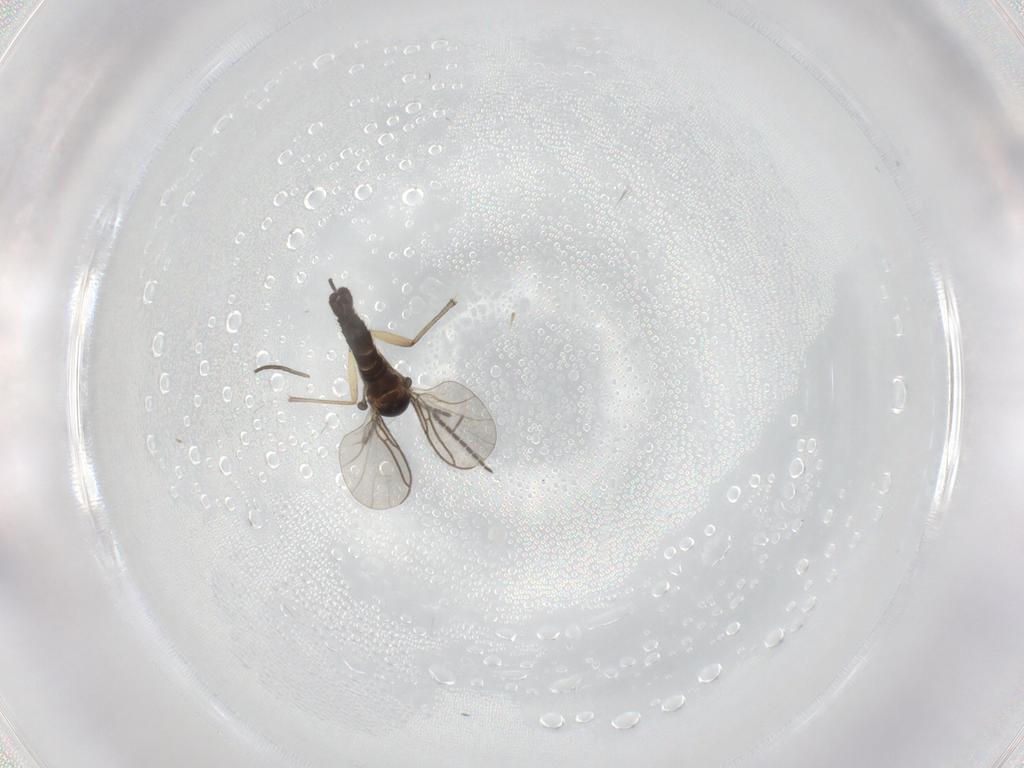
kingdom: Animalia
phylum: Arthropoda
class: Insecta
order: Diptera
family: Phoridae
